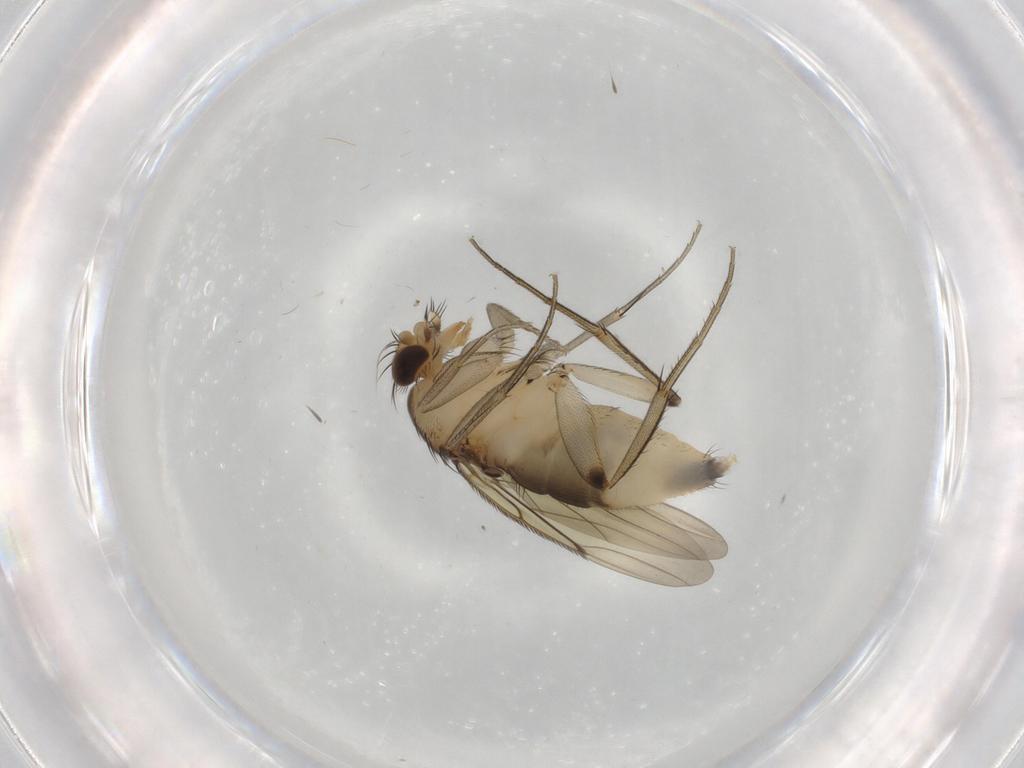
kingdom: Animalia
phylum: Arthropoda
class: Insecta
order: Diptera
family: Phoridae
